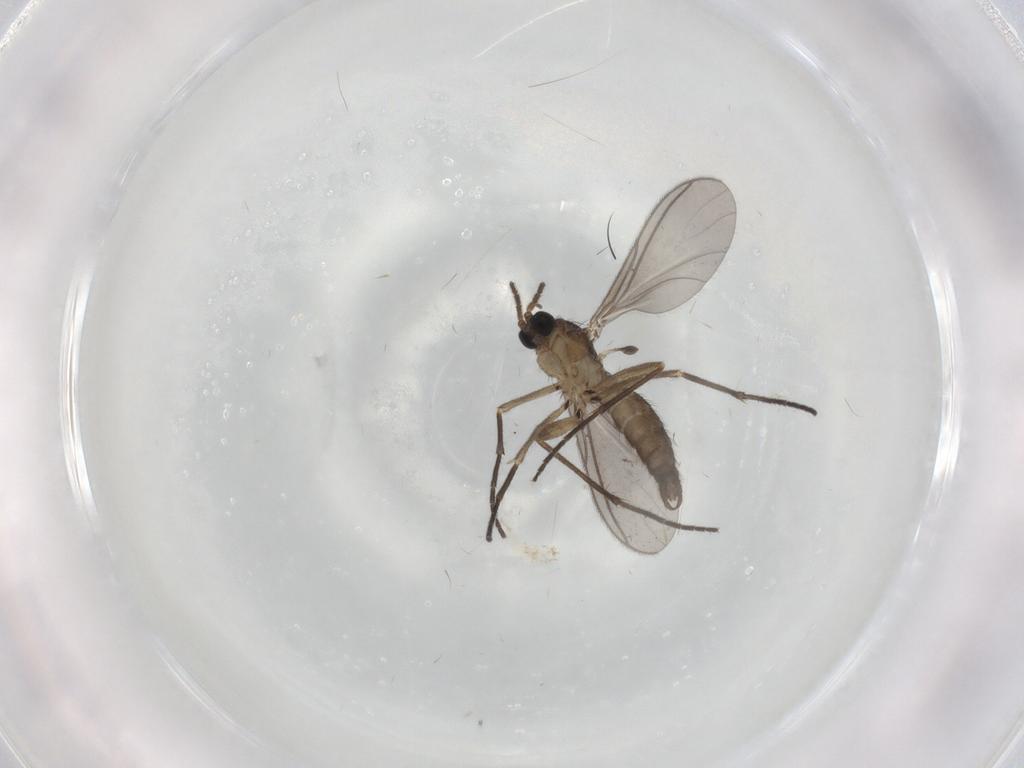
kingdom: Animalia
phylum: Arthropoda
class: Insecta
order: Diptera
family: Sciaridae
